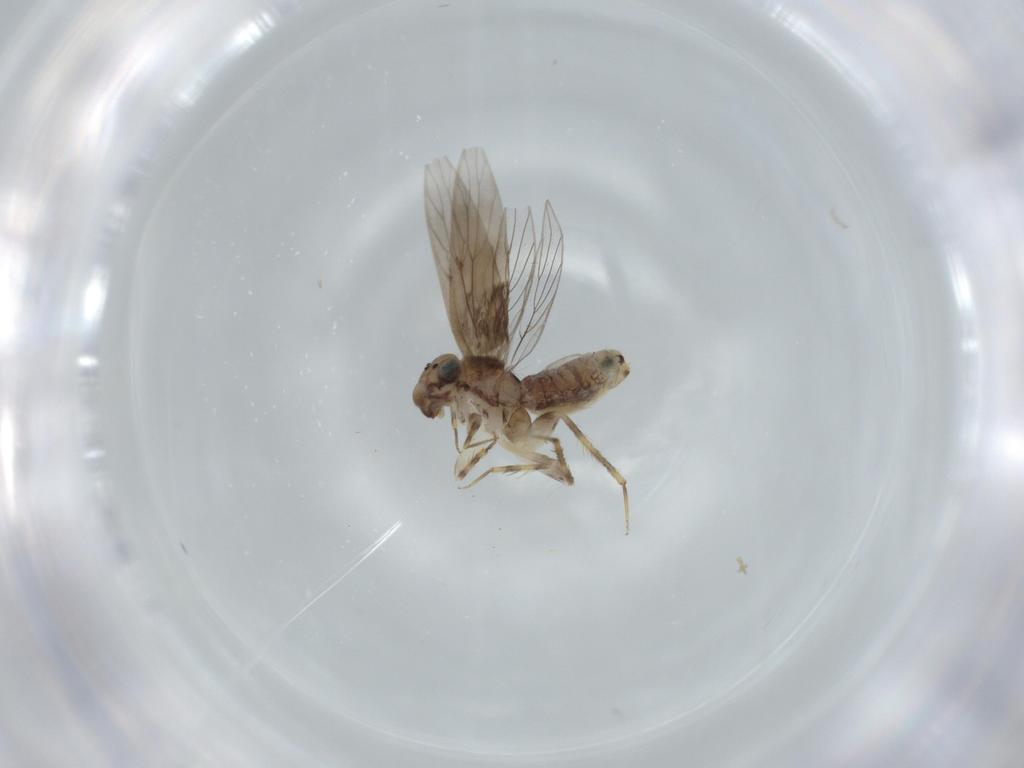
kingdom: Animalia
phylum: Arthropoda
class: Insecta
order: Psocodea
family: Lepidopsocidae
